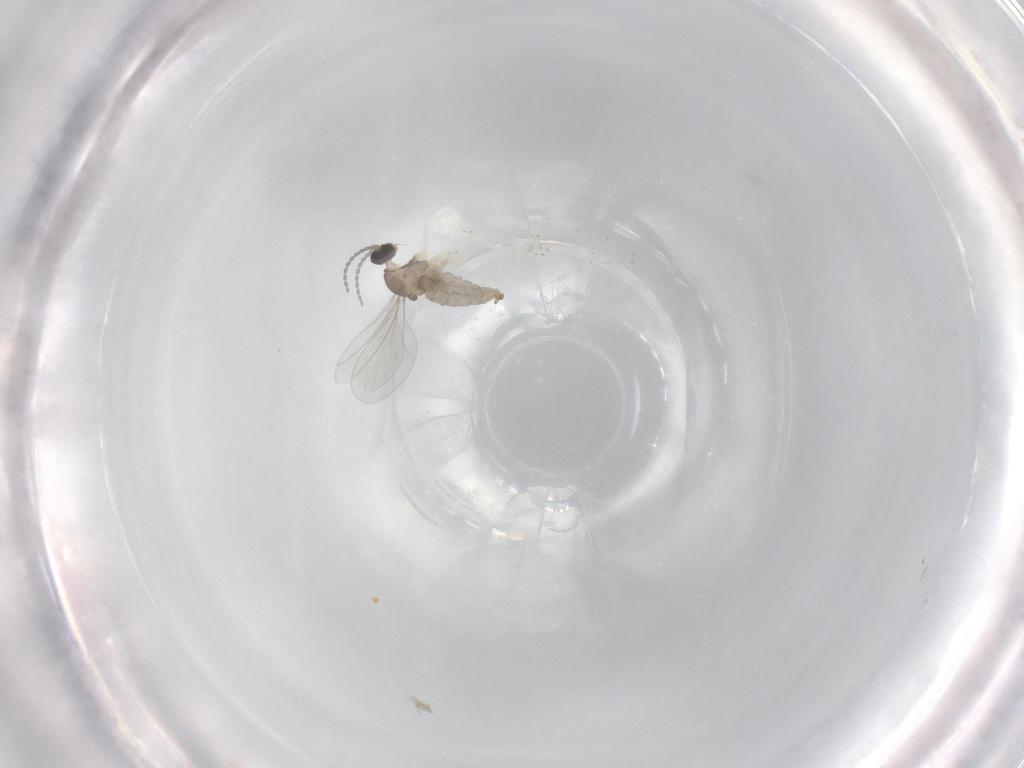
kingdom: Animalia
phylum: Arthropoda
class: Insecta
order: Diptera
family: Cecidomyiidae
